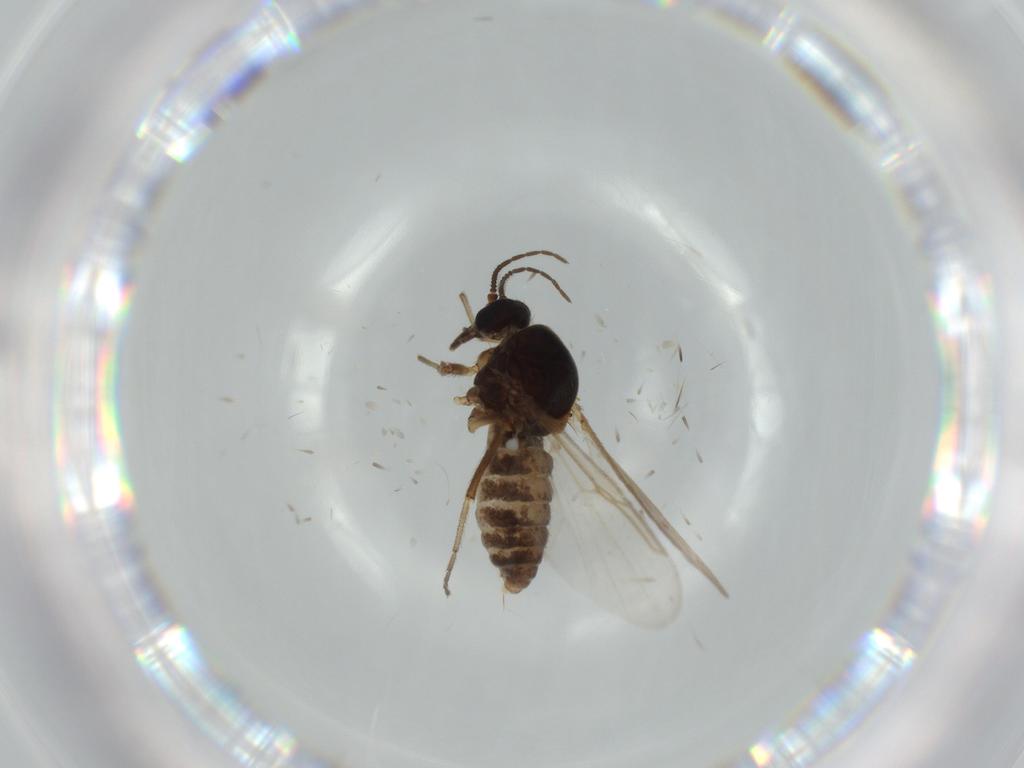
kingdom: Animalia
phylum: Arthropoda
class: Insecta
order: Diptera
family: Ceratopogonidae
